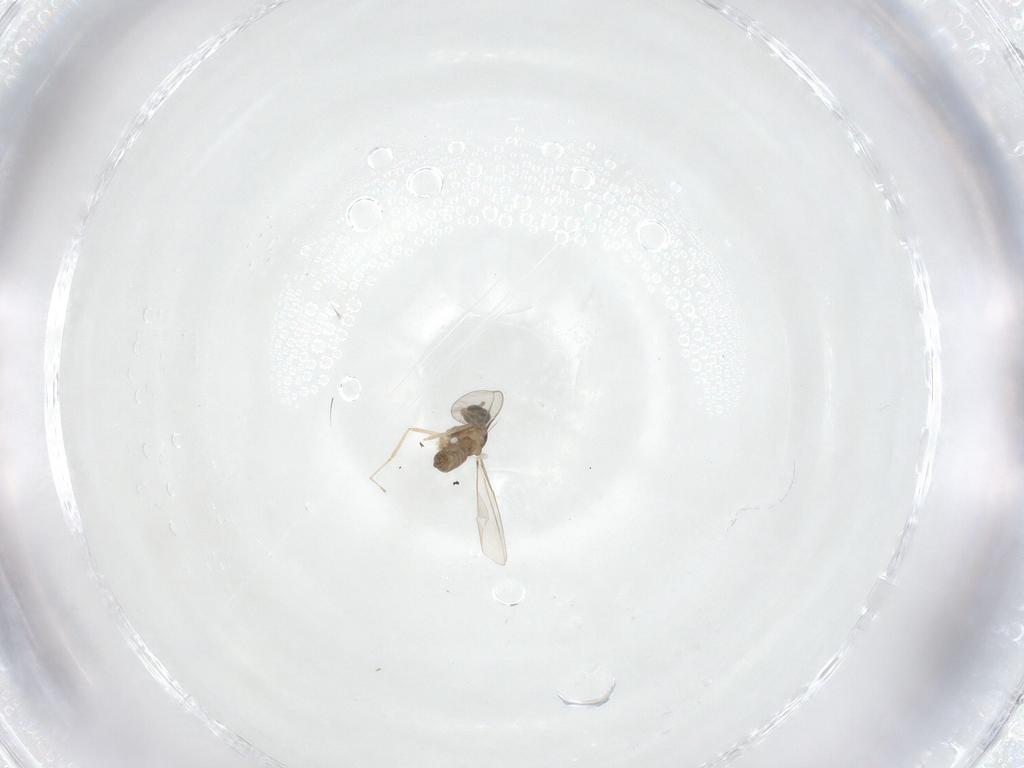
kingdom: Animalia
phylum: Arthropoda
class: Insecta
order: Diptera
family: Cecidomyiidae
